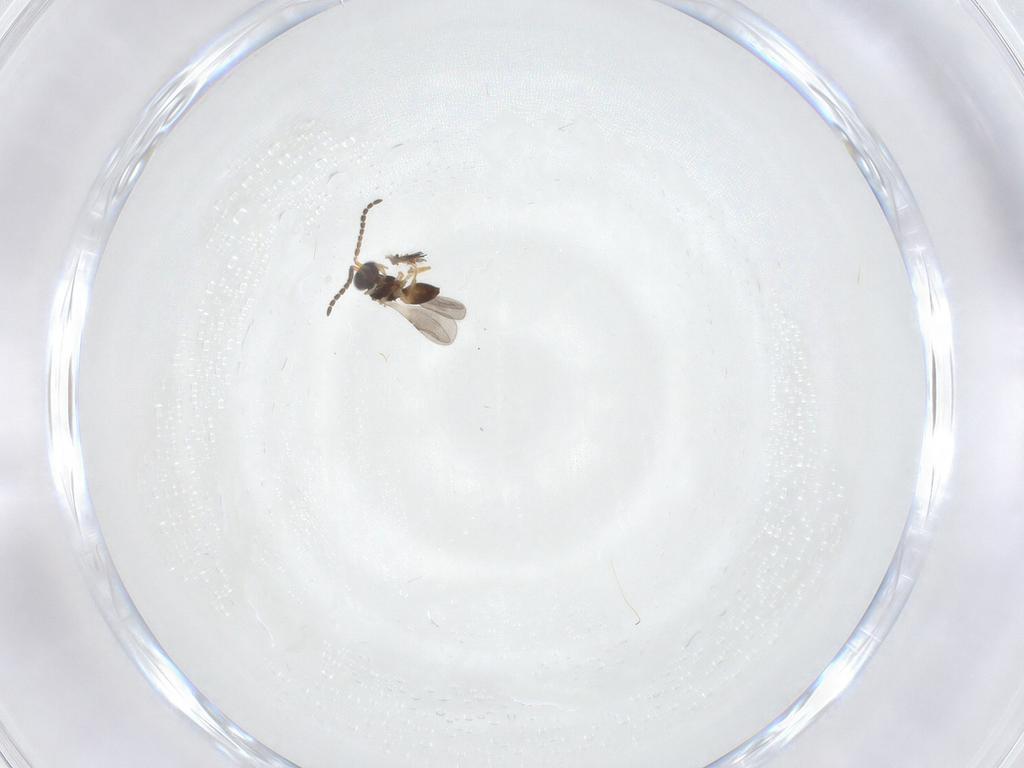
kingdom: Animalia
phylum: Arthropoda
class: Insecta
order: Hymenoptera
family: Ceraphronidae
